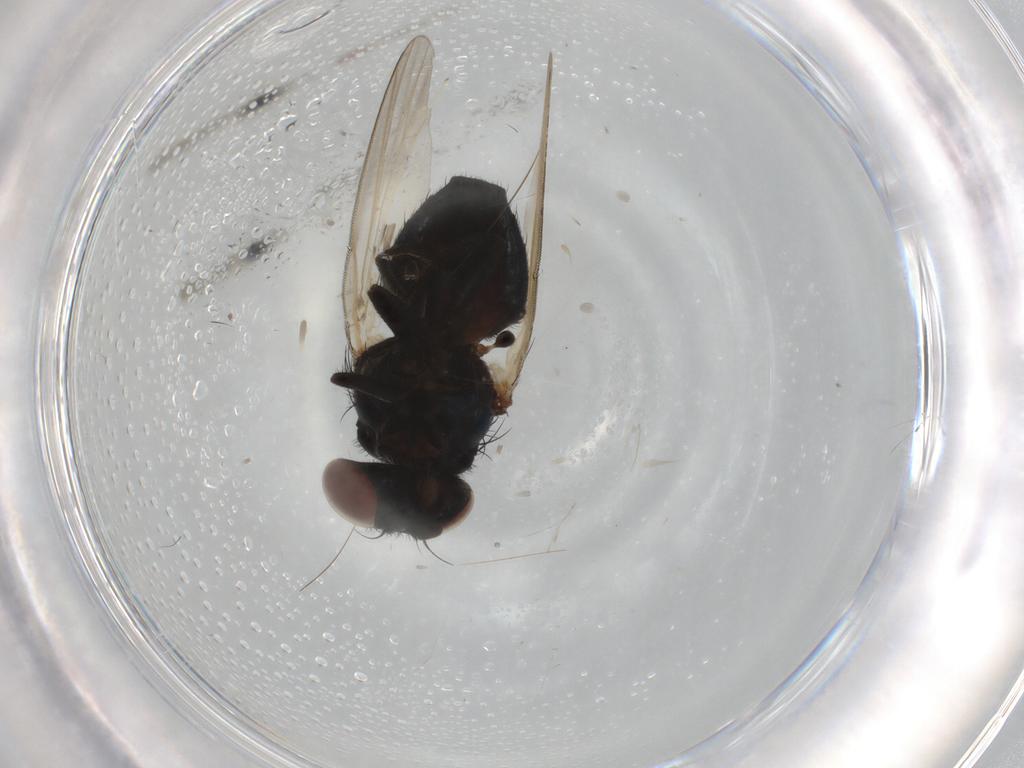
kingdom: Animalia
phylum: Arthropoda
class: Insecta
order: Diptera
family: Lonchaeidae
